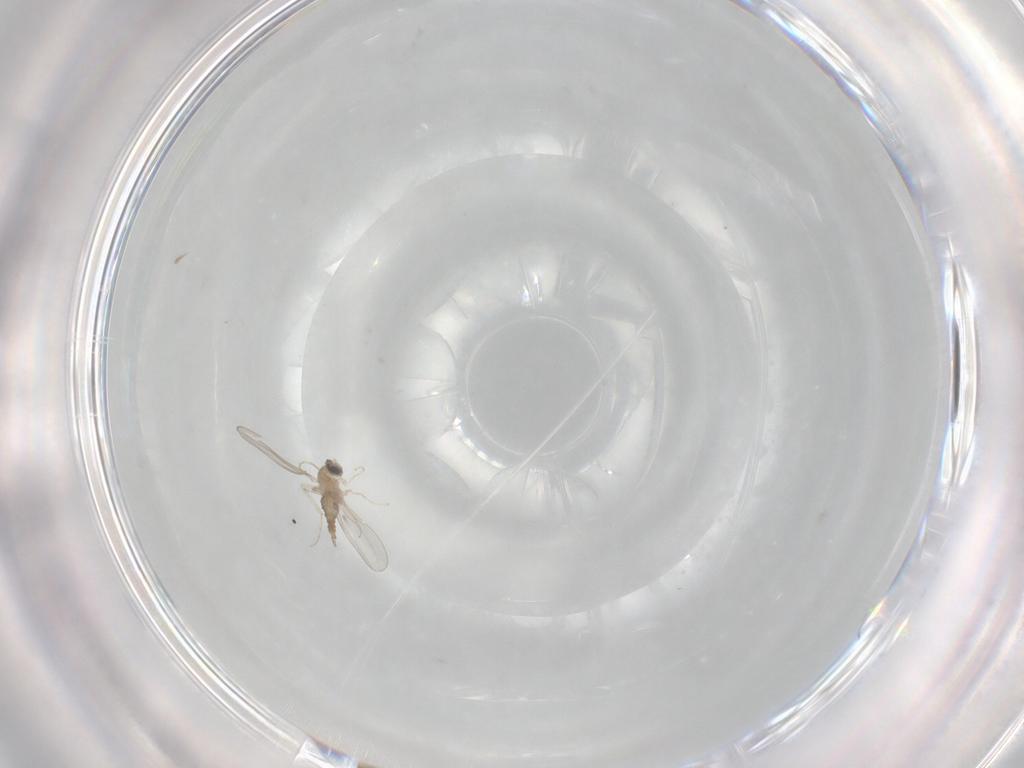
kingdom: Animalia
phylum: Arthropoda
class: Insecta
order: Diptera
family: Cecidomyiidae
